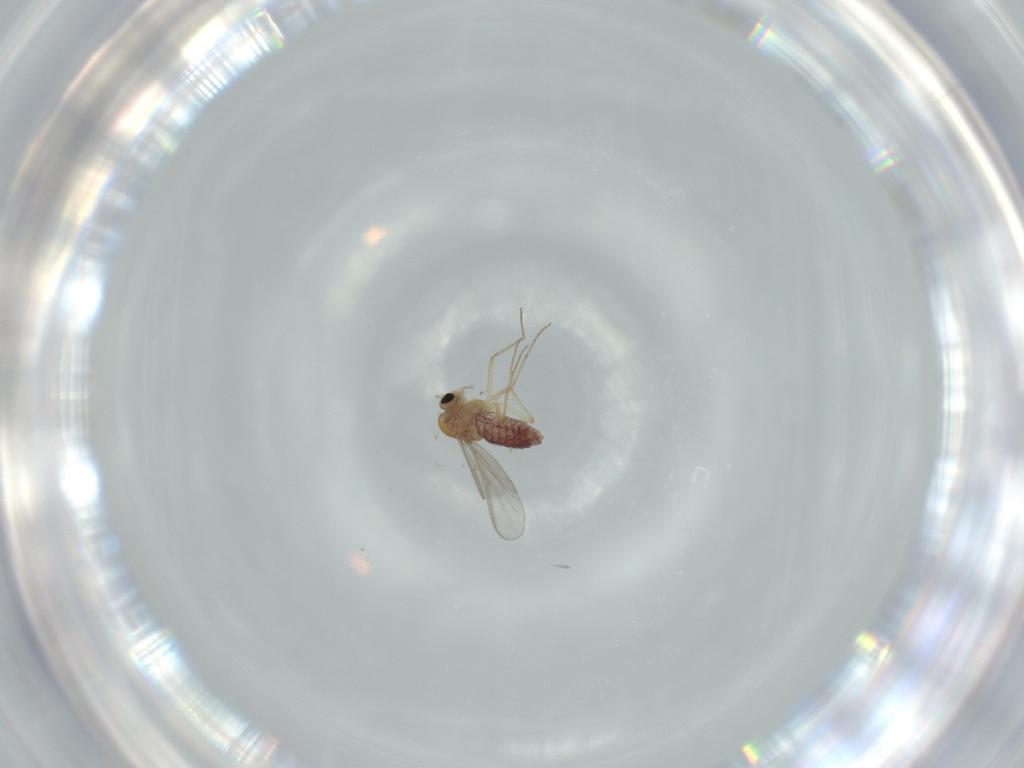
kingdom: Animalia
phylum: Arthropoda
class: Insecta
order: Diptera
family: Chironomidae
